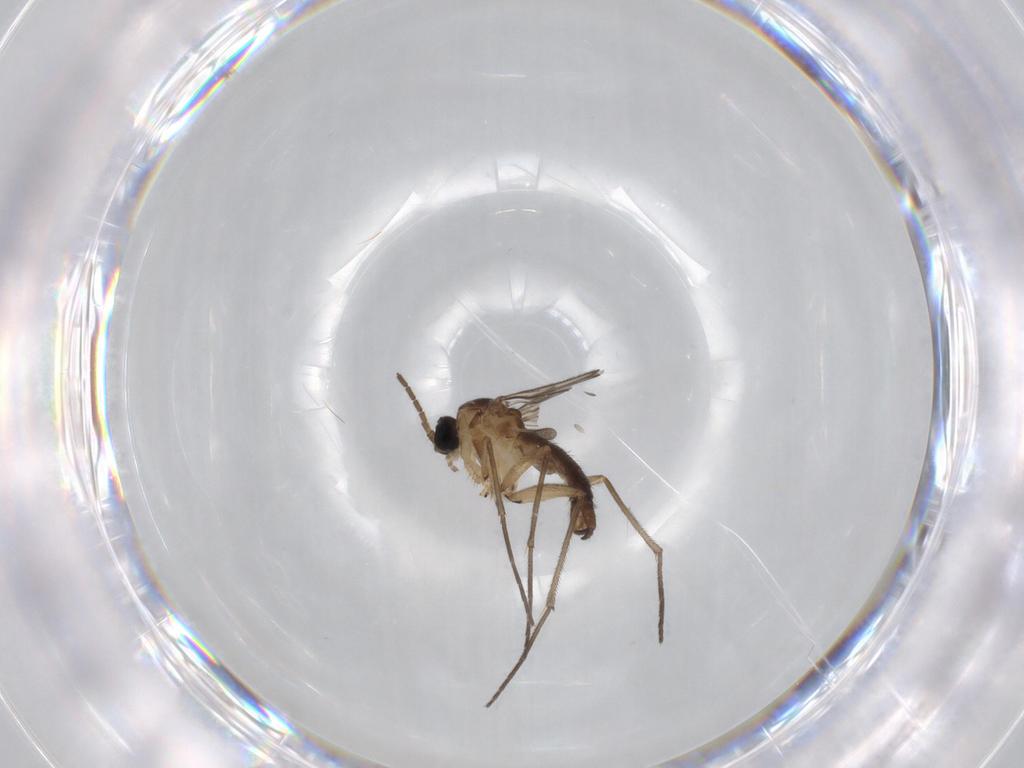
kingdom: Animalia
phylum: Arthropoda
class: Insecta
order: Diptera
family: Sciaridae
